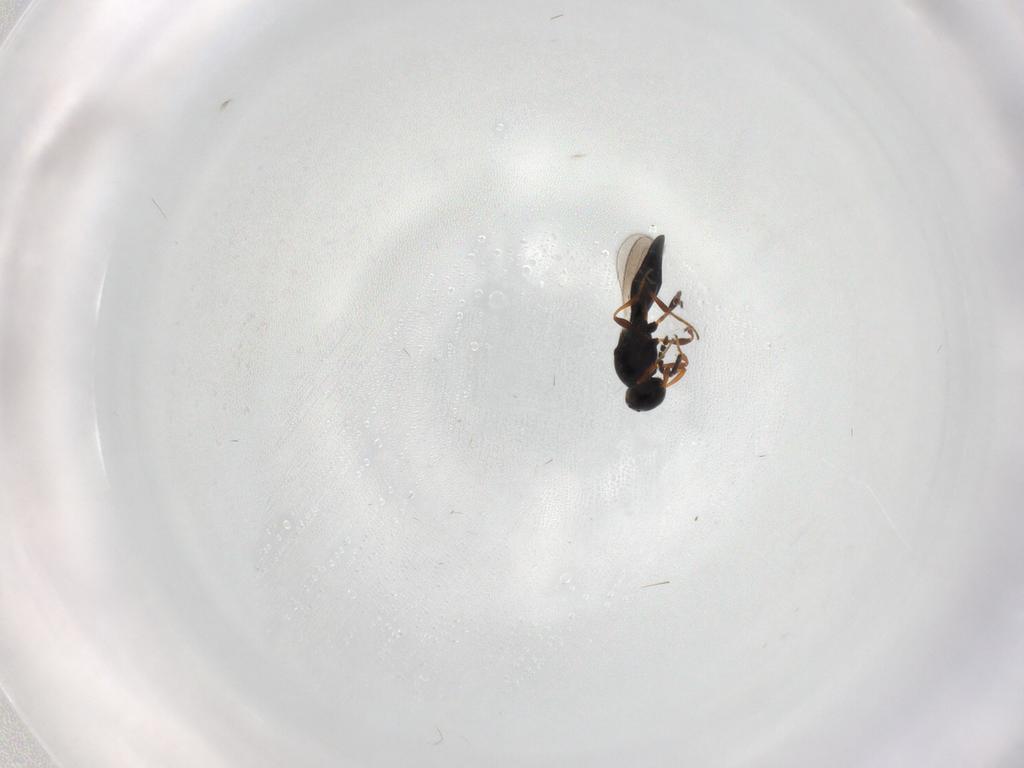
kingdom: Animalia
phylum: Arthropoda
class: Insecta
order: Hymenoptera
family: Platygastridae
